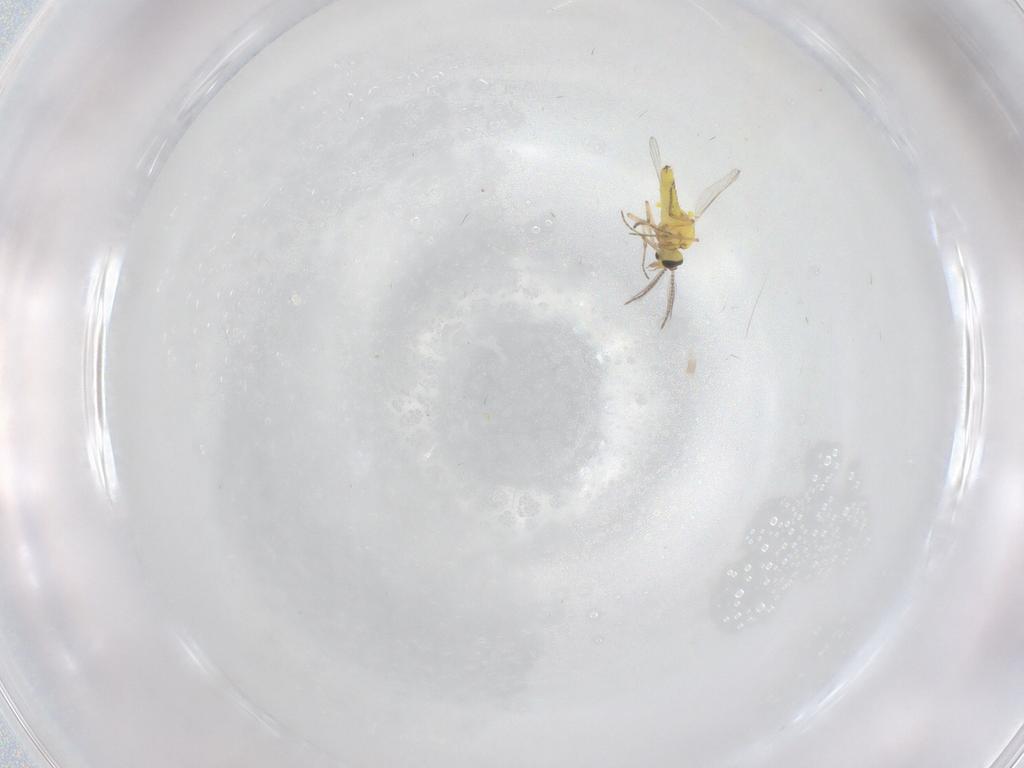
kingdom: Animalia
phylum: Arthropoda
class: Insecta
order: Diptera
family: Ceratopogonidae
